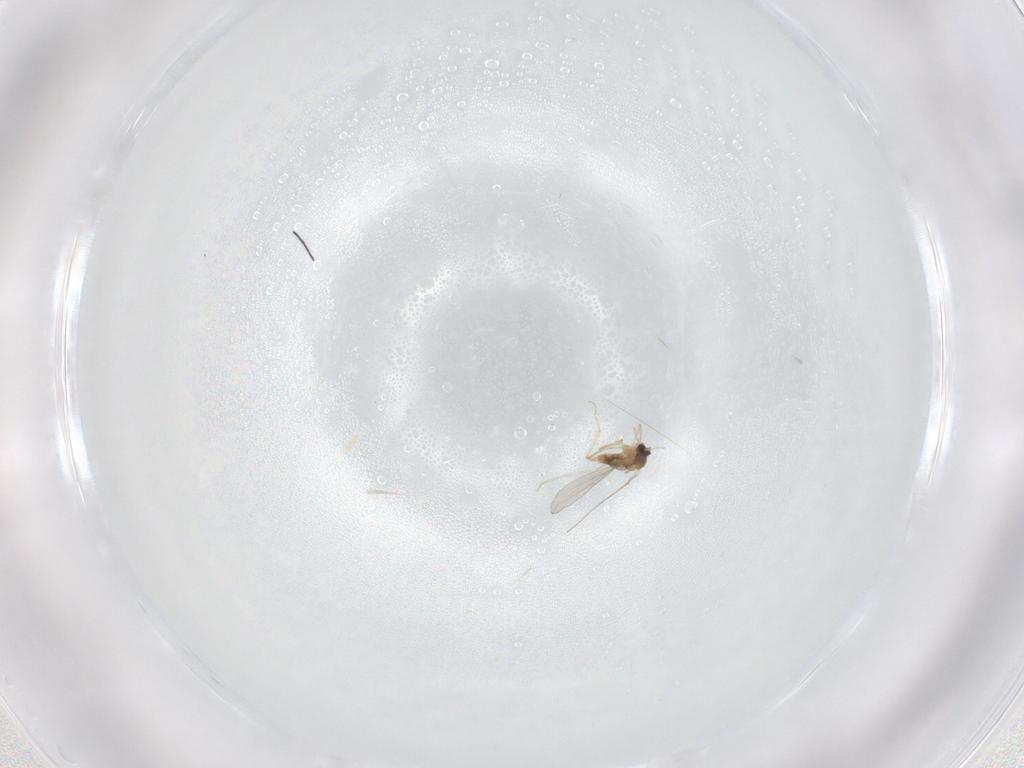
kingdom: Animalia
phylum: Arthropoda
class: Insecta
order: Diptera
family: Cecidomyiidae
